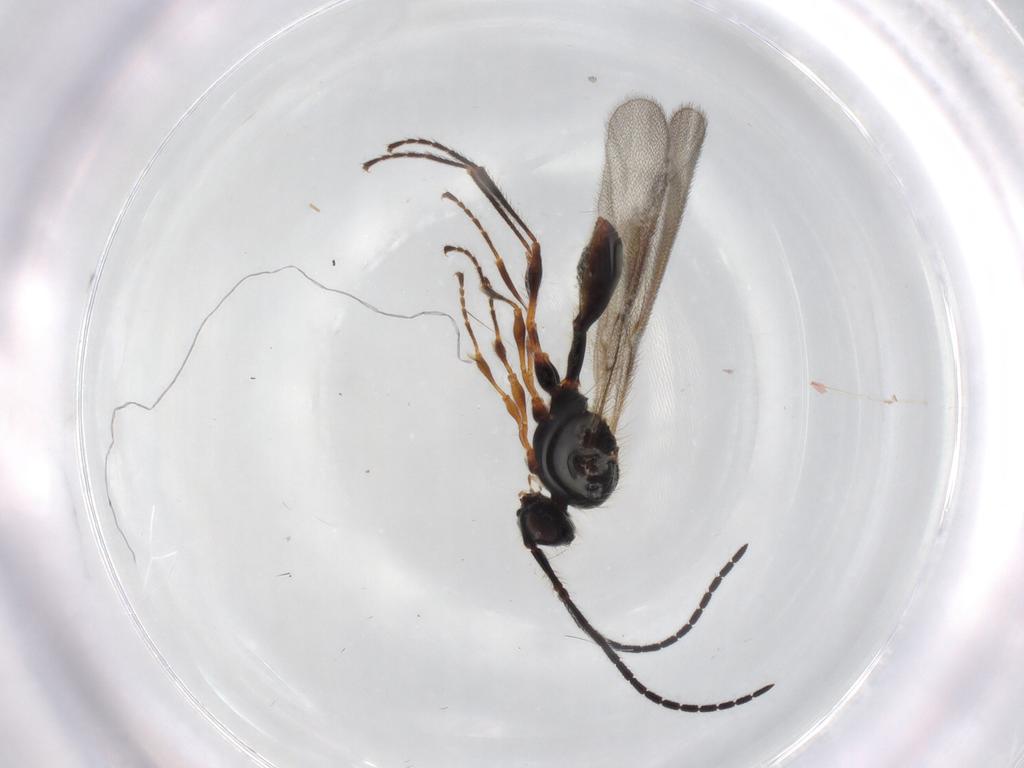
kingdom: Animalia
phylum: Arthropoda
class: Insecta
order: Hymenoptera
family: Diapriidae
